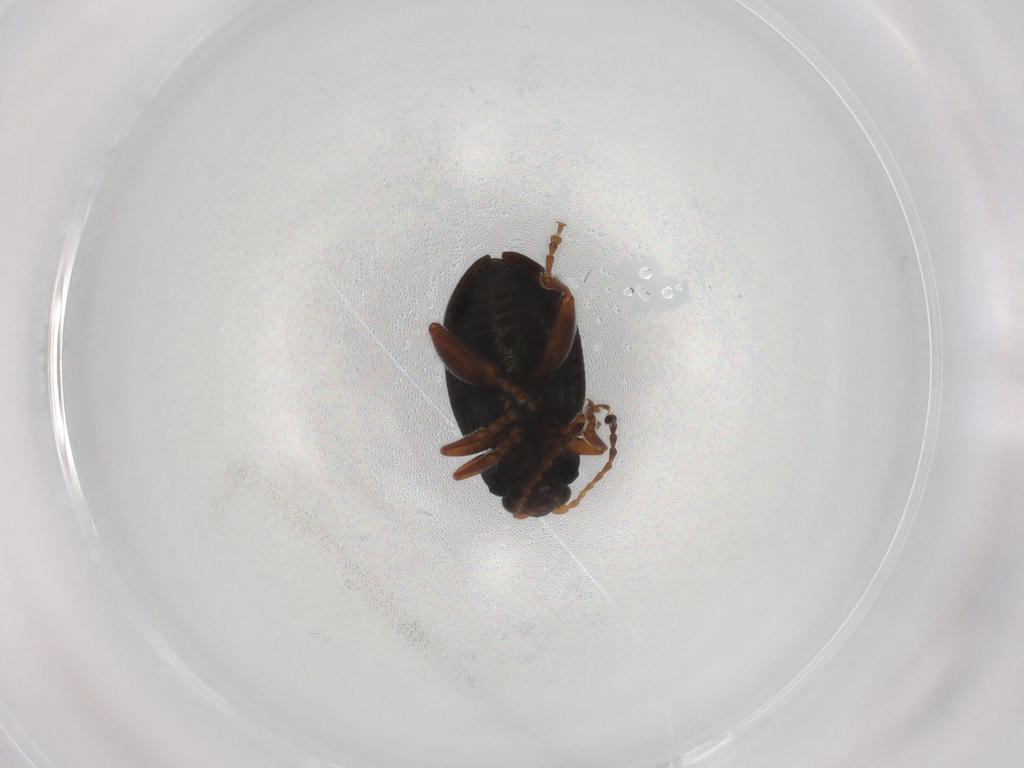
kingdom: Animalia
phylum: Arthropoda
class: Insecta
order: Coleoptera
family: Chrysomelidae
